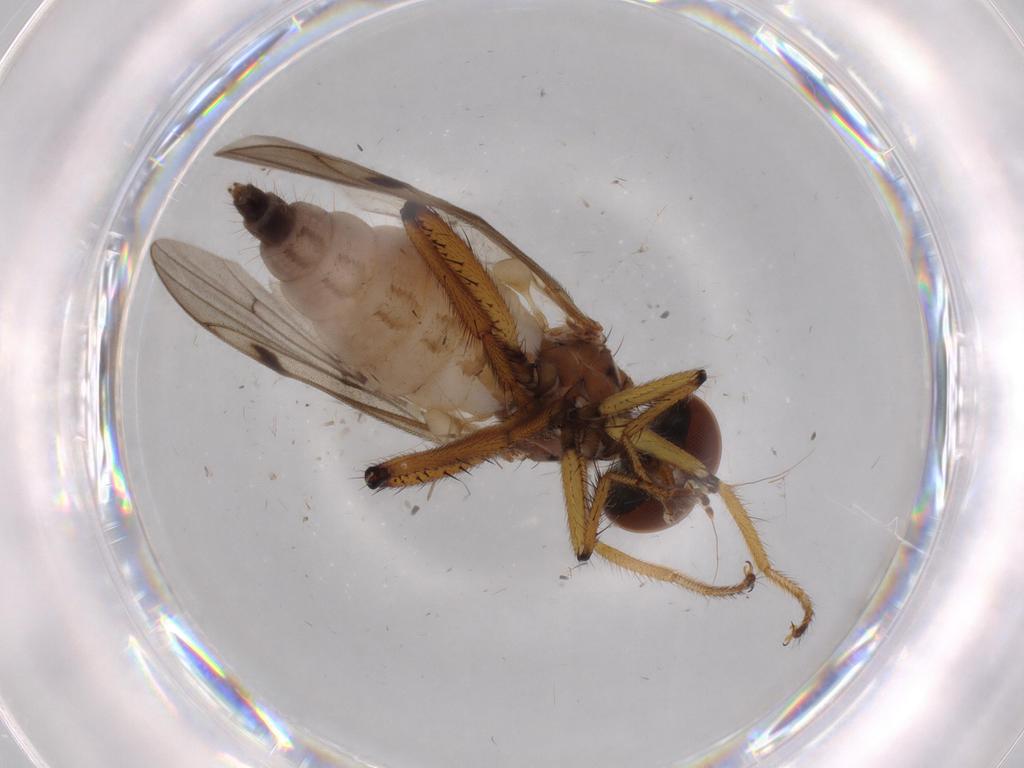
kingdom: Animalia
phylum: Arthropoda
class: Insecta
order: Diptera
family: Hybotidae
